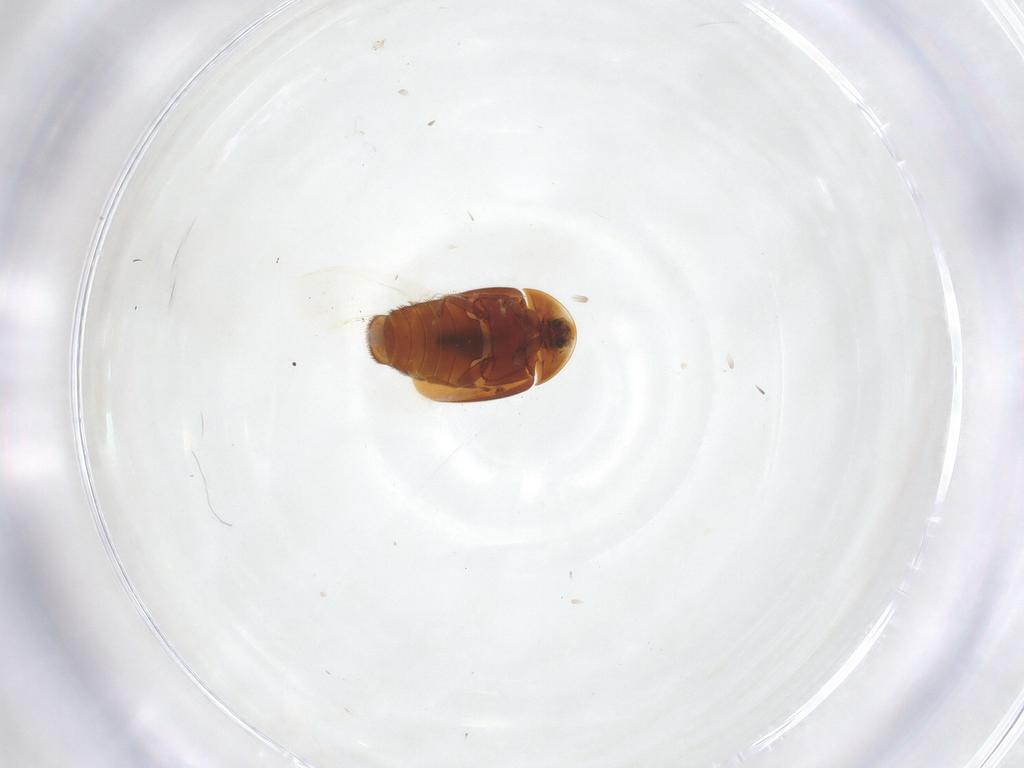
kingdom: Animalia
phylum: Arthropoda
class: Insecta
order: Coleoptera
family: Corylophidae
